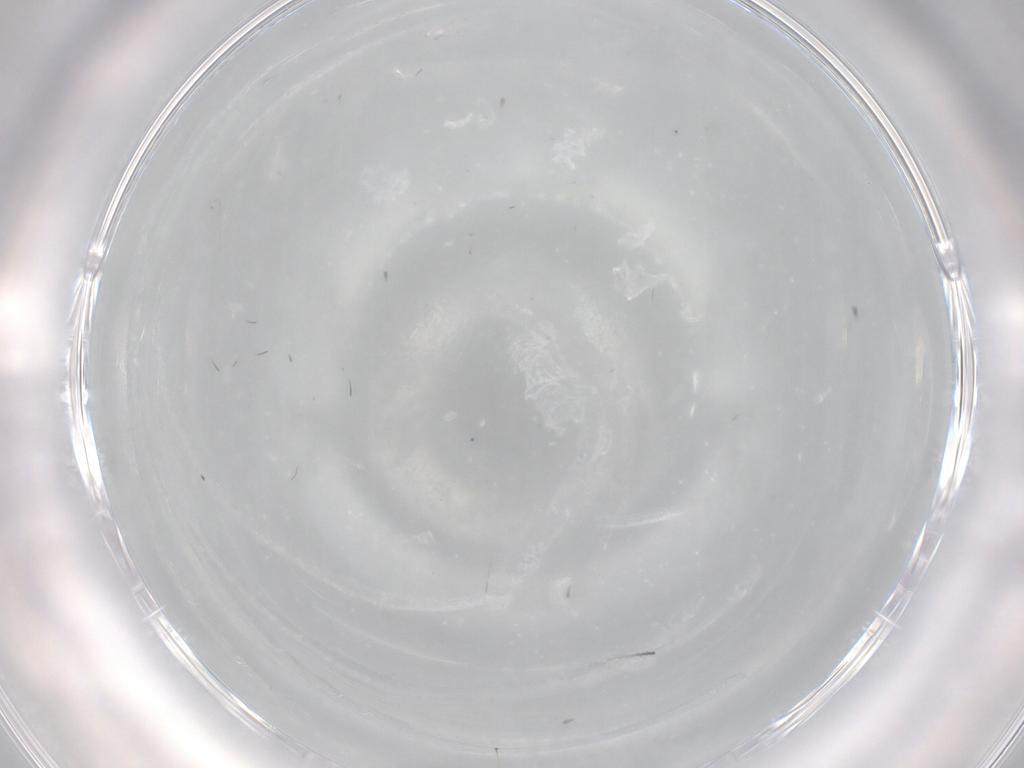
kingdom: Animalia
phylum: Arthropoda
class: Insecta
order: Diptera
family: Ceratopogonidae
